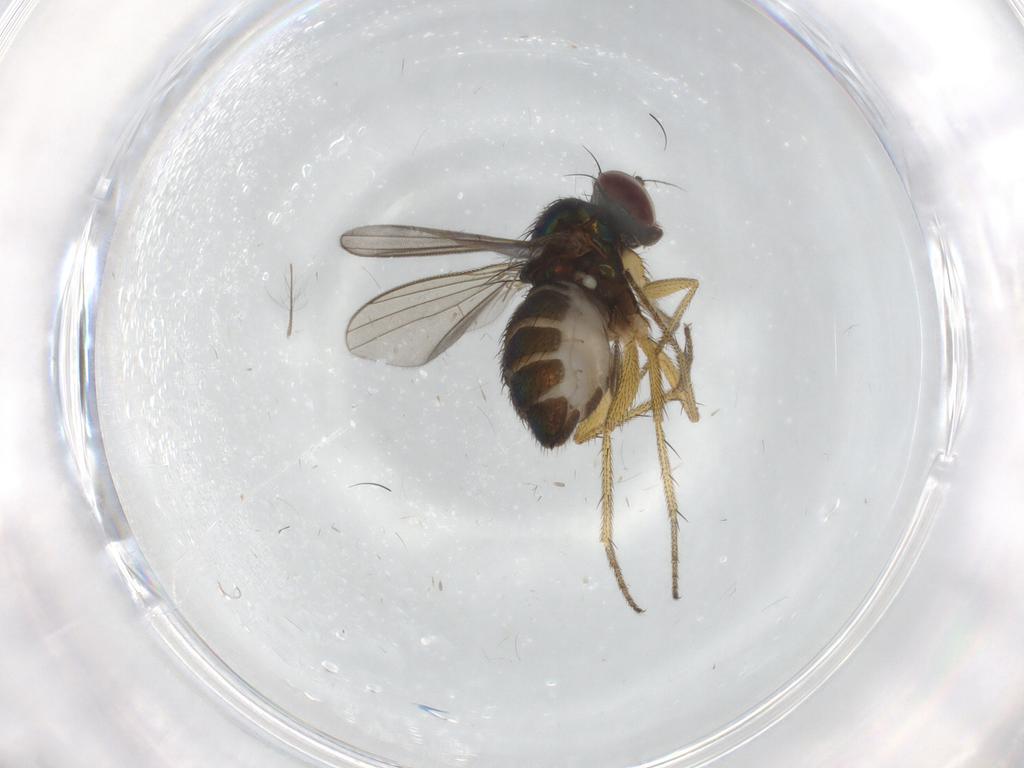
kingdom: Animalia
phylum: Arthropoda
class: Insecta
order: Diptera
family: Dolichopodidae
